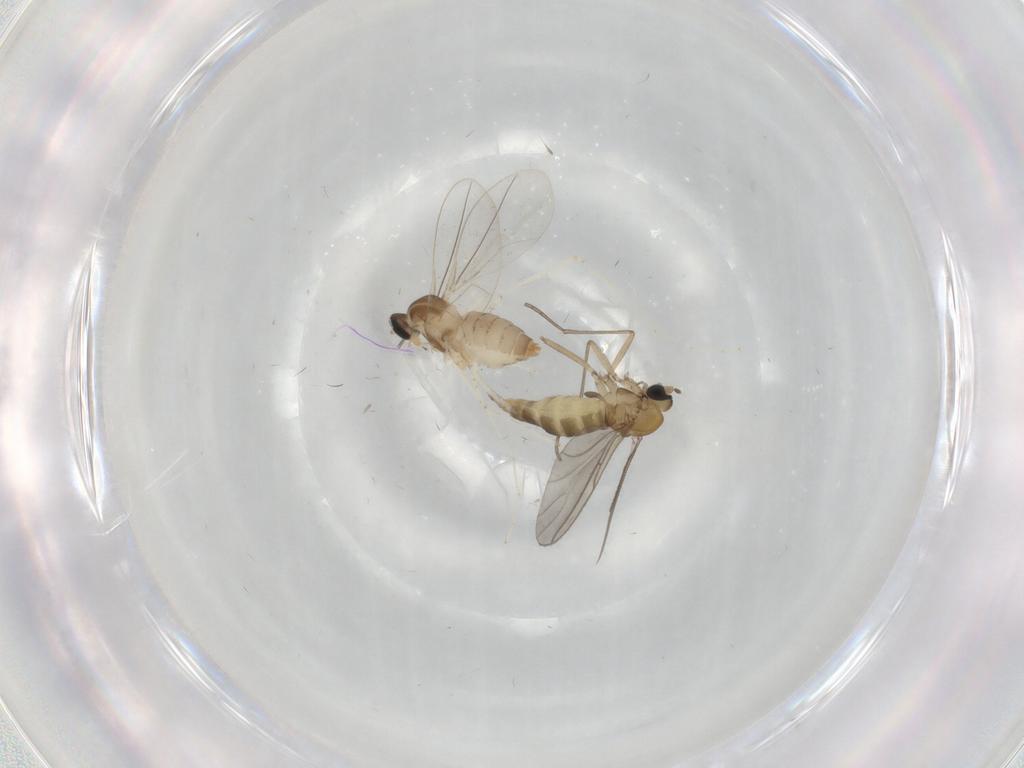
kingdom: Animalia
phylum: Arthropoda
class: Insecta
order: Diptera
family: Cecidomyiidae
